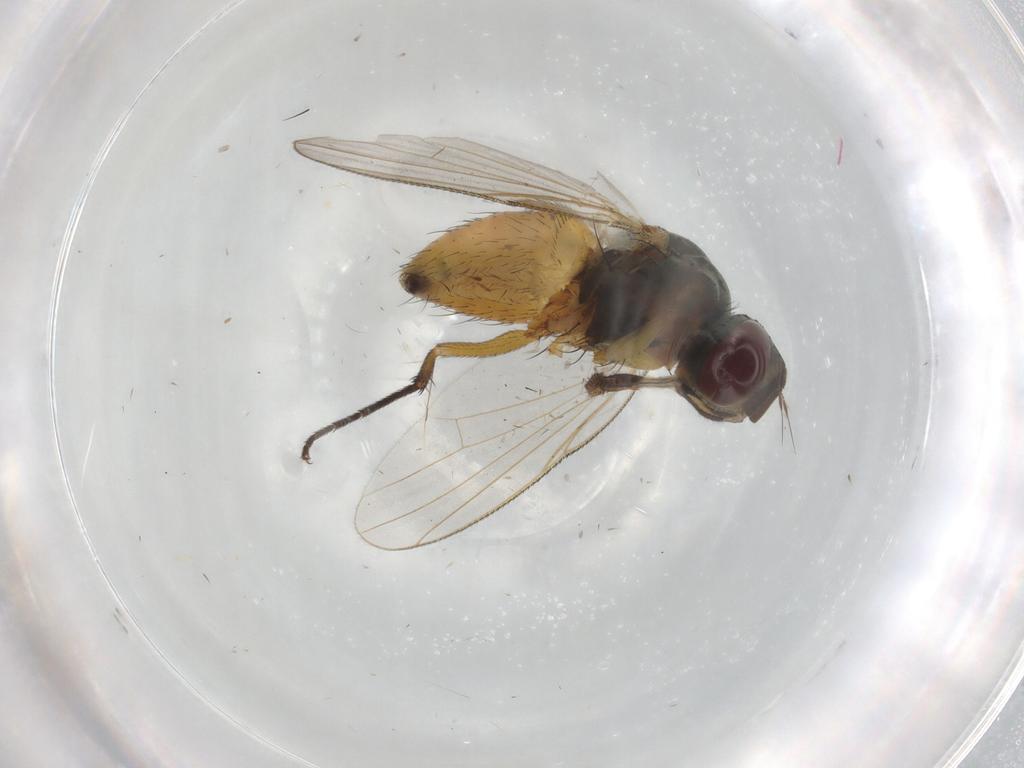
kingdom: Animalia
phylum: Arthropoda
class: Insecta
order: Diptera
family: Muscidae
